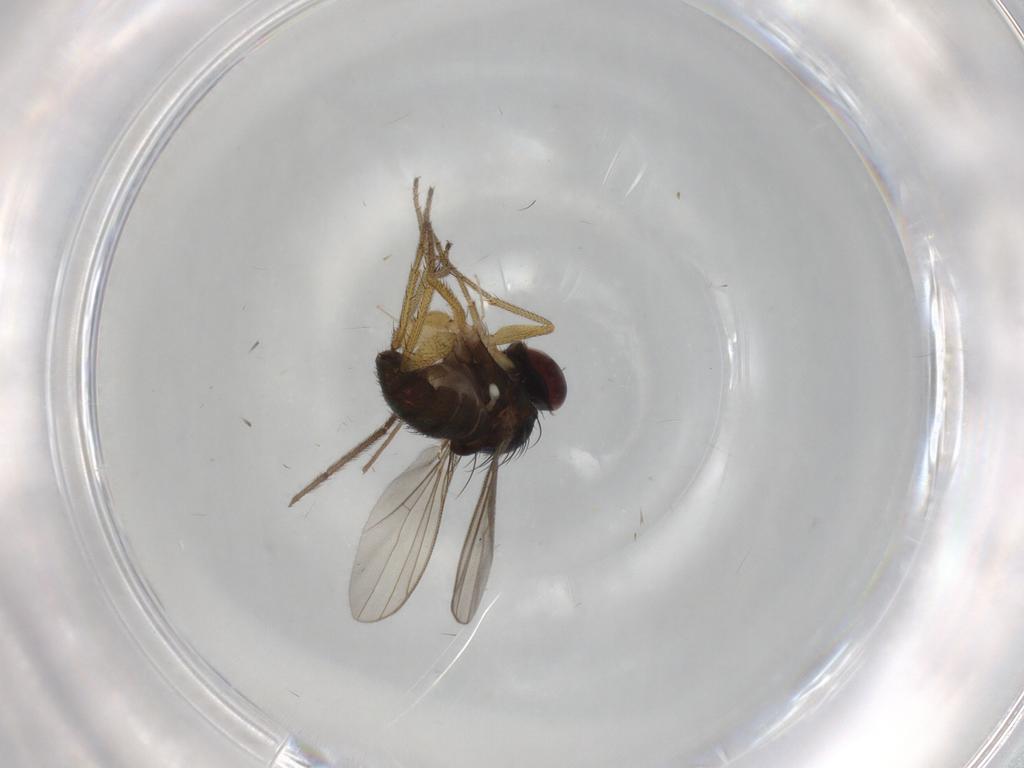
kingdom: Animalia
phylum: Arthropoda
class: Insecta
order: Diptera
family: Dolichopodidae
